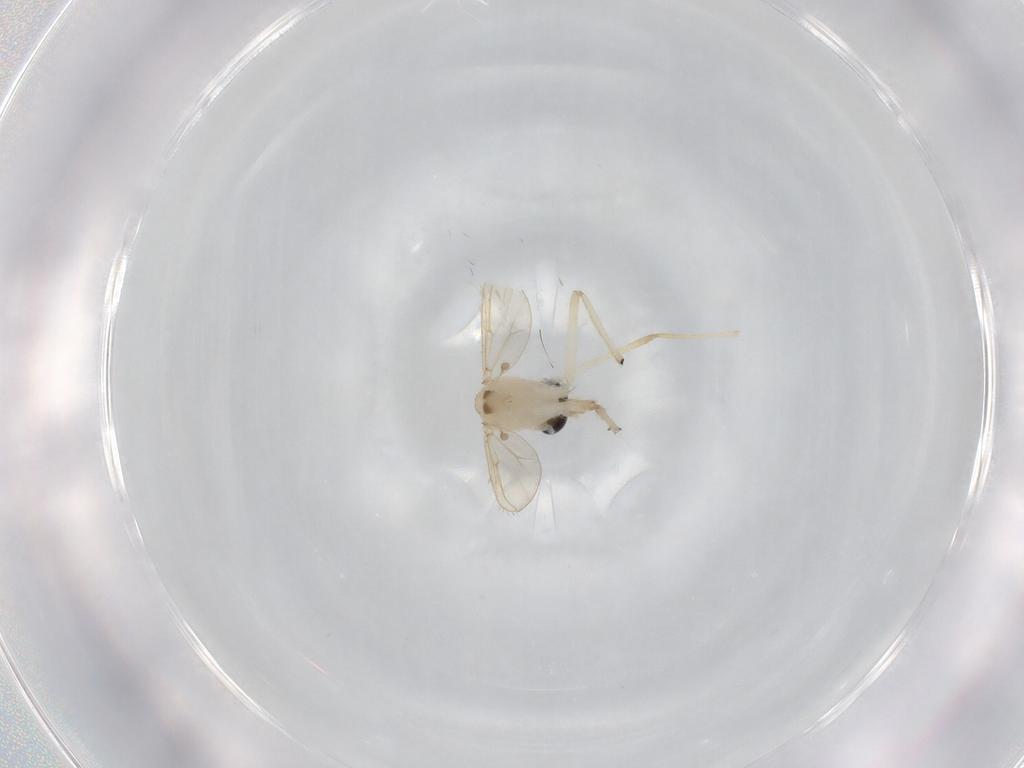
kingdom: Animalia
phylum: Arthropoda
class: Insecta
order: Diptera
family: Chironomidae
